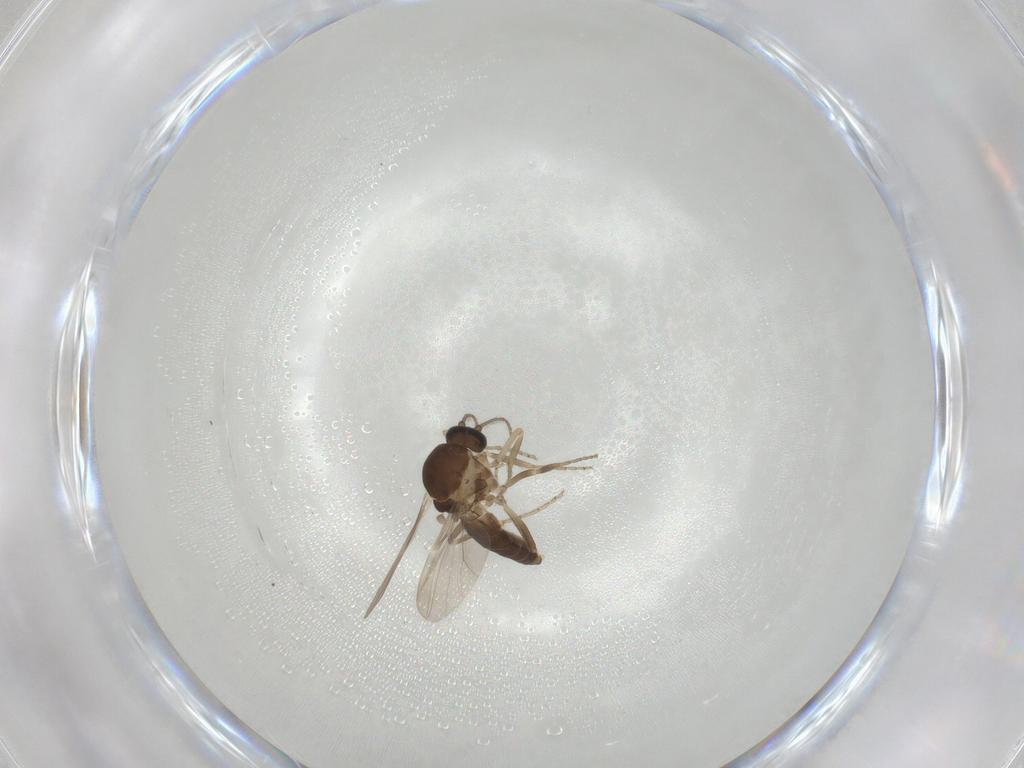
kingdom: Animalia
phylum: Arthropoda
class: Insecta
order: Diptera
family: Ceratopogonidae
